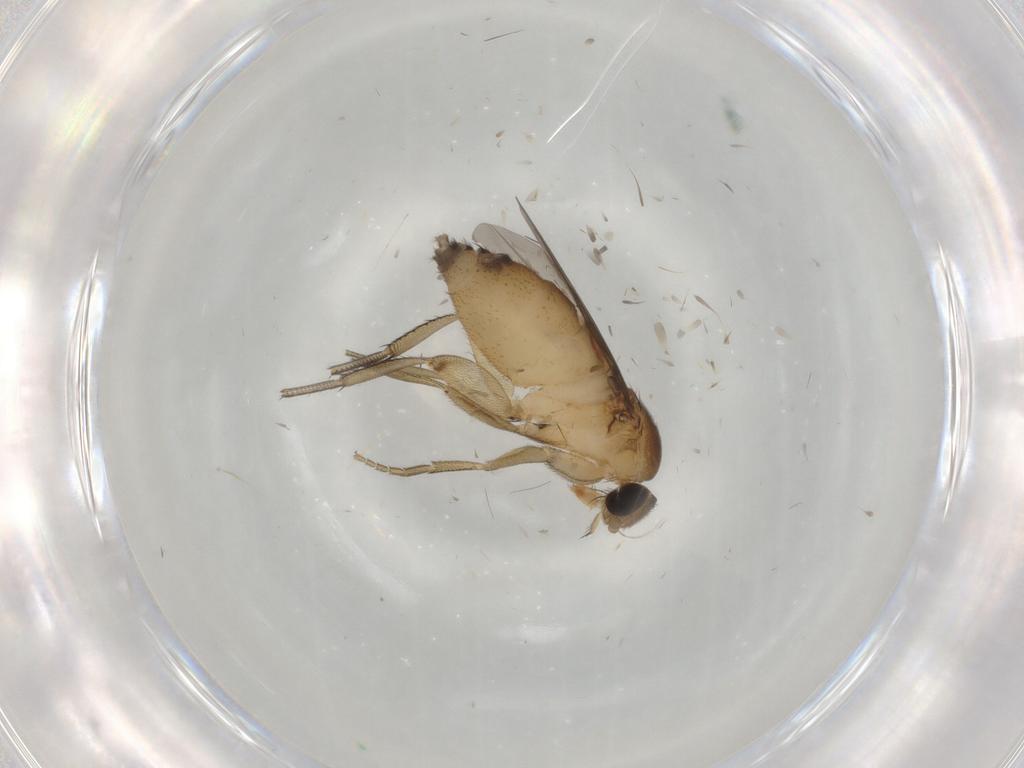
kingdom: Animalia
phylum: Arthropoda
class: Insecta
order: Diptera
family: Phoridae
